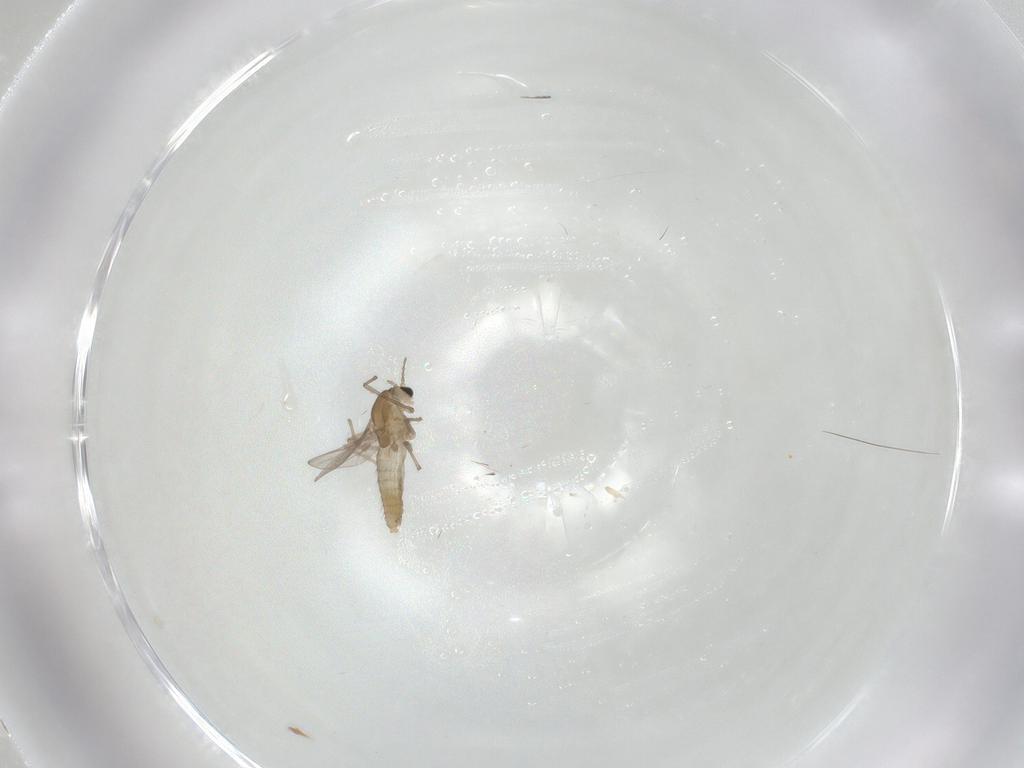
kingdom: Animalia
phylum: Arthropoda
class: Insecta
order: Diptera
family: Chironomidae
